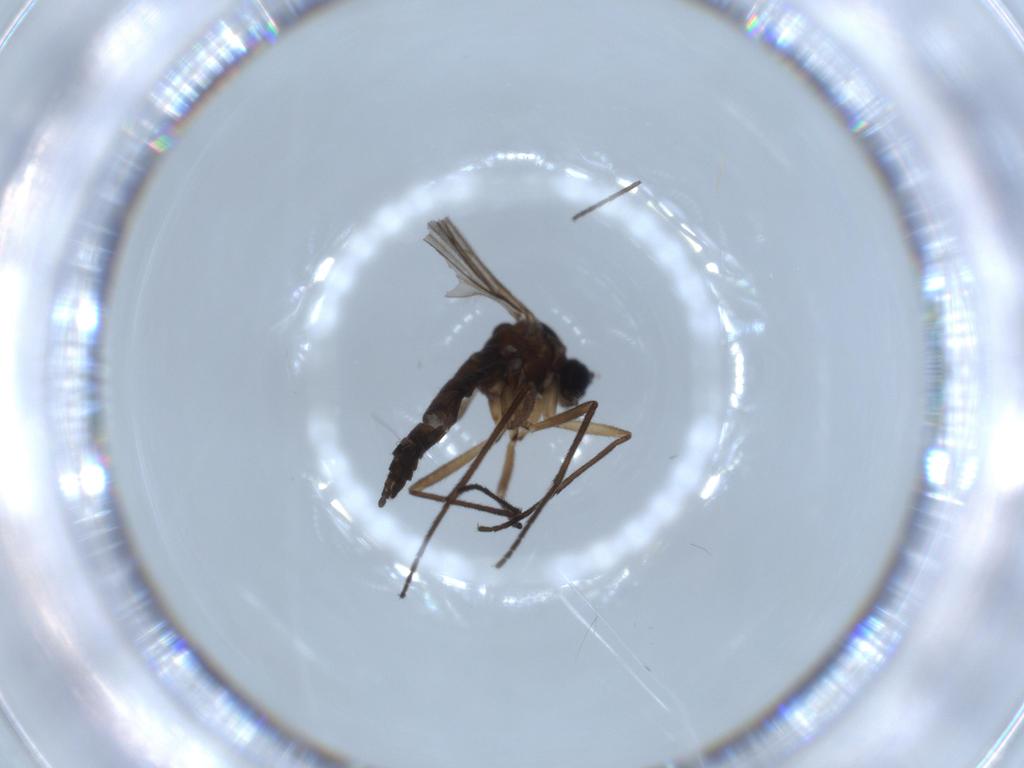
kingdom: Animalia
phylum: Arthropoda
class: Insecta
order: Diptera
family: Sciaridae
